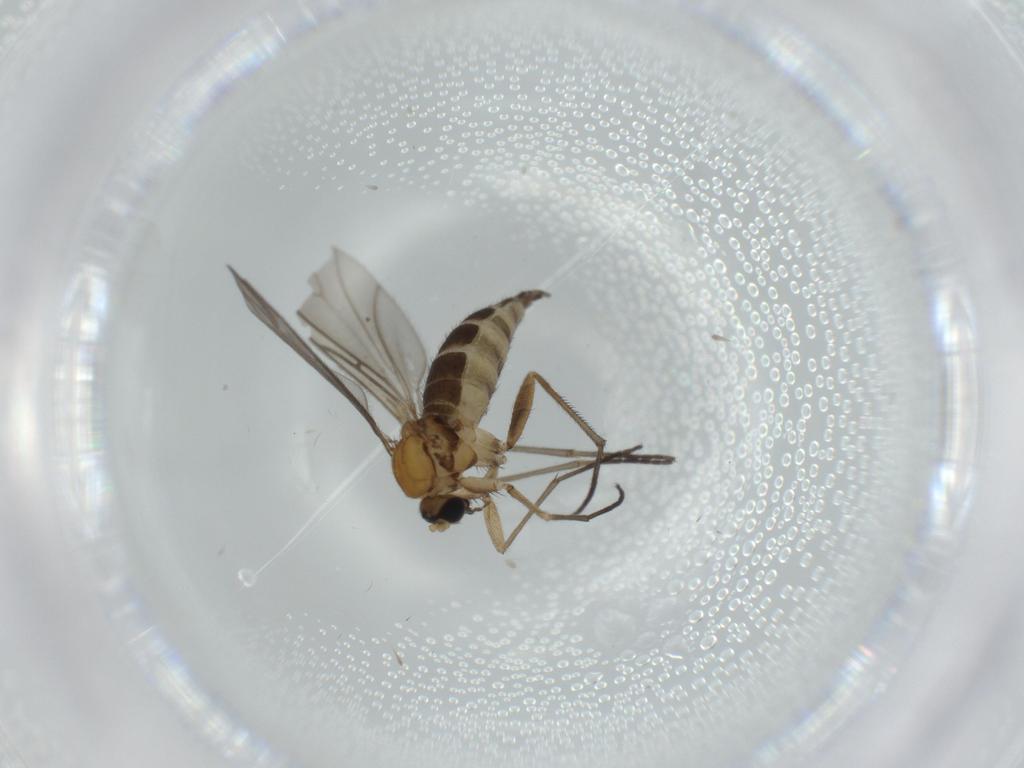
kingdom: Animalia
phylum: Arthropoda
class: Insecta
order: Diptera
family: Sciaridae
